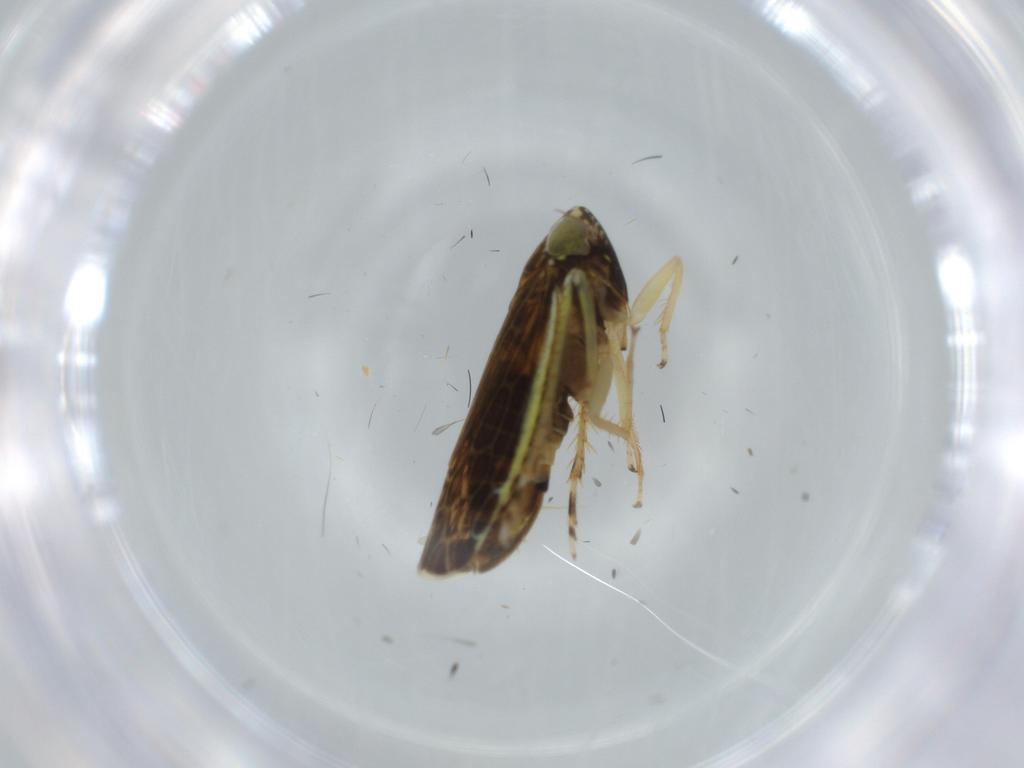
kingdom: Animalia
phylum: Arthropoda
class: Insecta
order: Hemiptera
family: Cicadellidae
